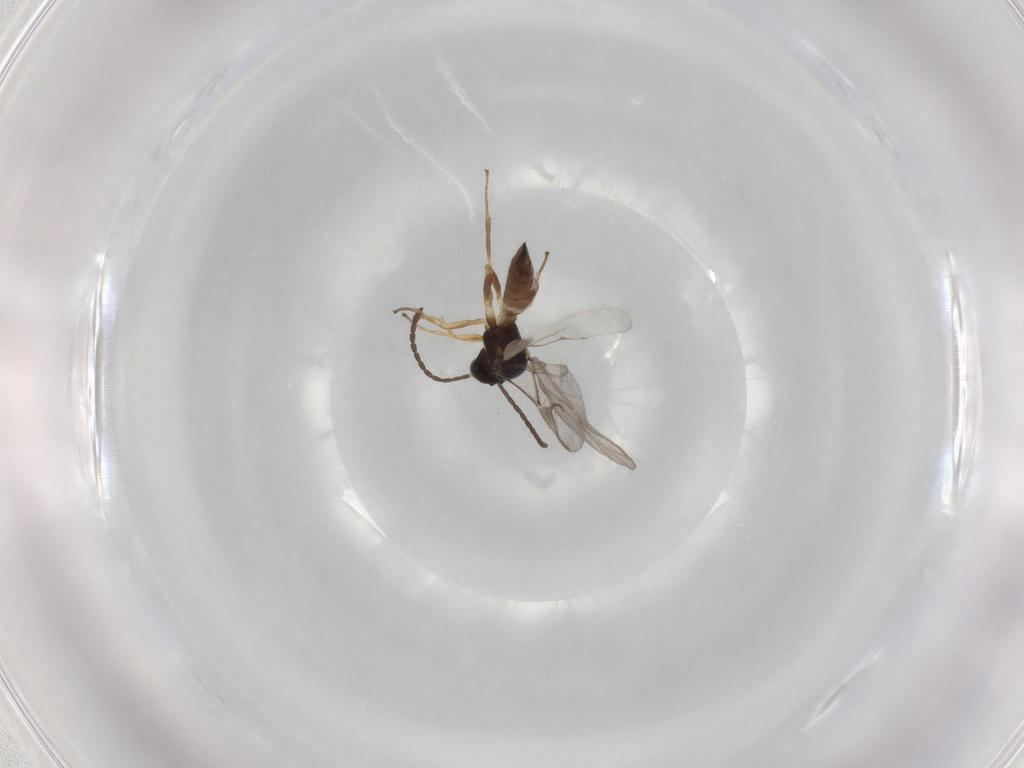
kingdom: Animalia
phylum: Arthropoda
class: Insecta
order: Hymenoptera
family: Braconidae
